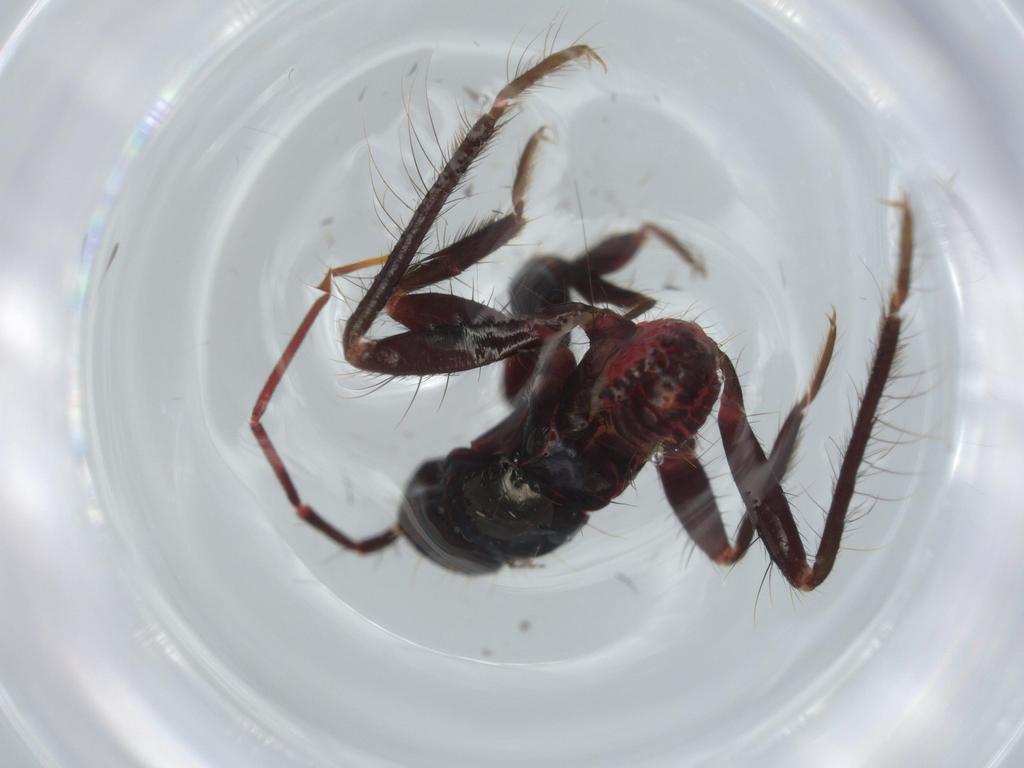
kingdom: Animalia
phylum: Arthropoda
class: Insecta
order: Hemiptera
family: Reduviidae
